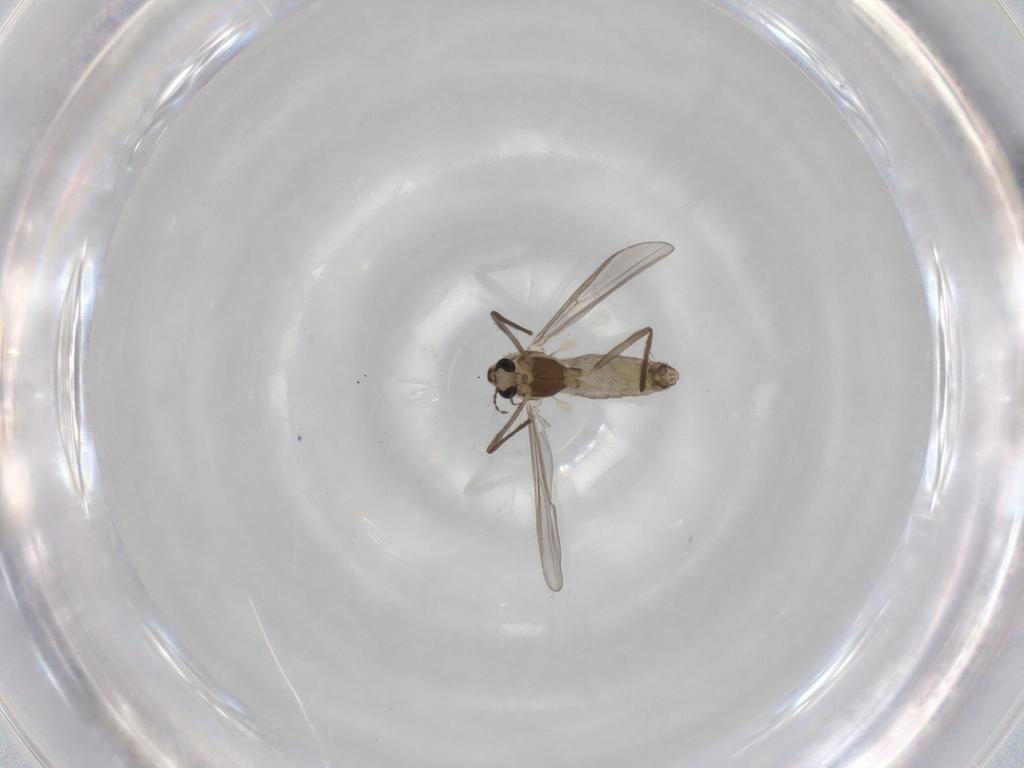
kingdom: Animalia
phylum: Arthropoda
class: Insecta
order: Diptera
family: Chironomidae
